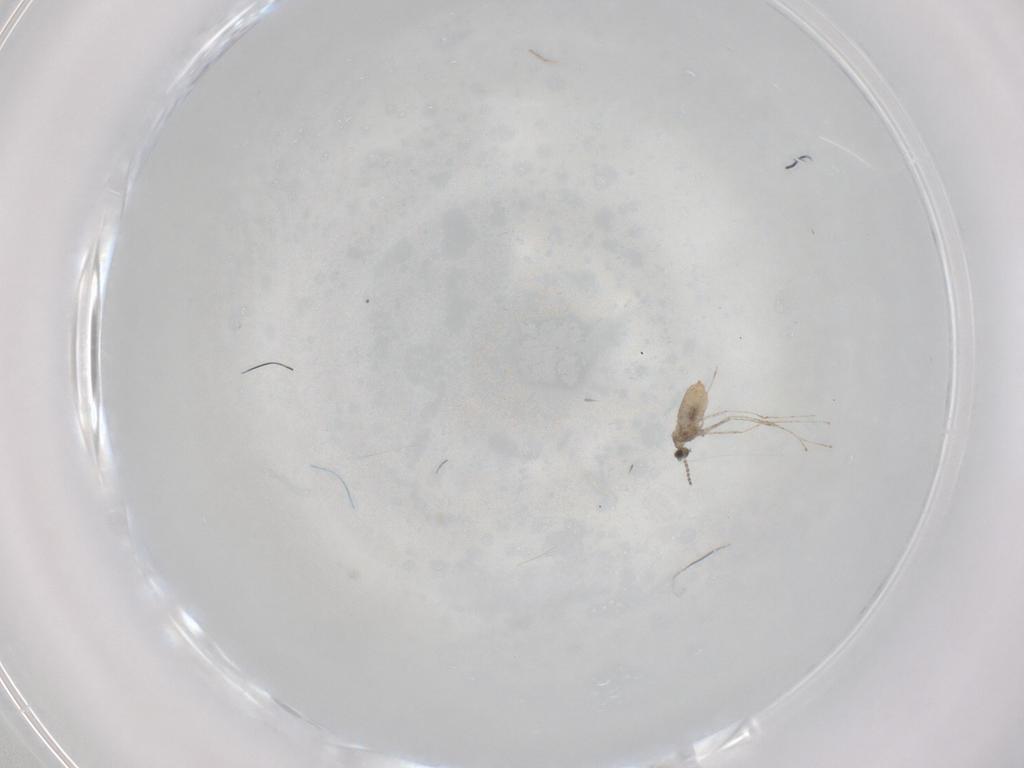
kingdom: Animalia
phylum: Arthropoda
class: Insecta
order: Diptera
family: Cecidomyiidae
